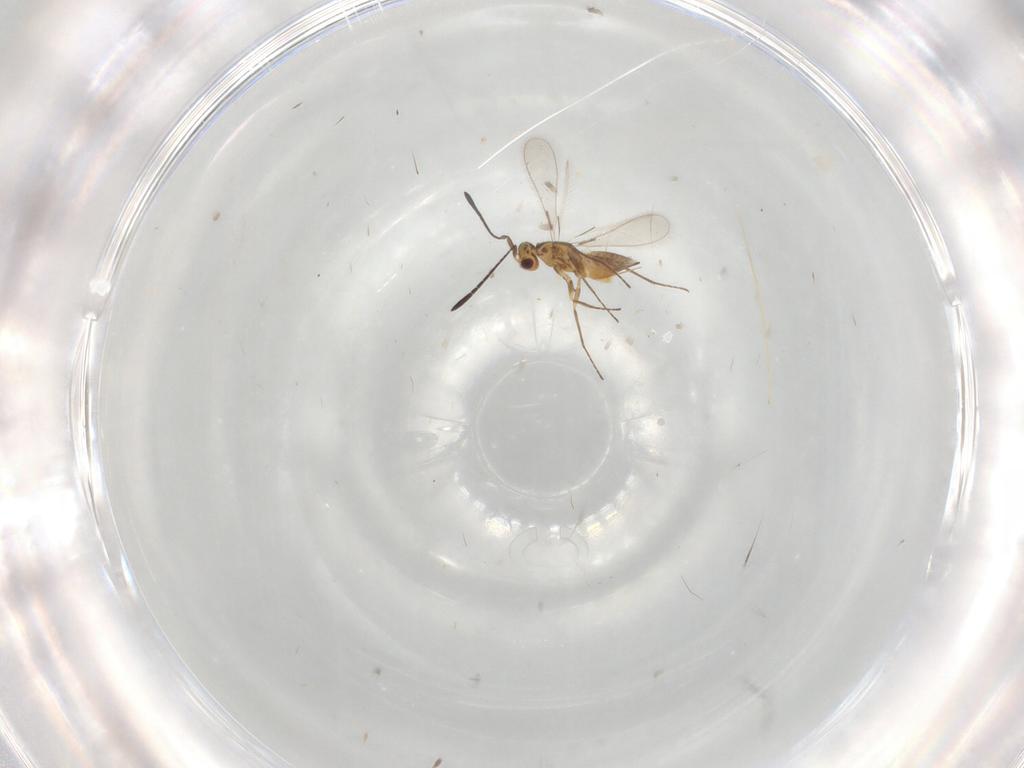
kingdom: Animalia
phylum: Arthropoda
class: Insecta
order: Hymenoptera
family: Mymaridae
